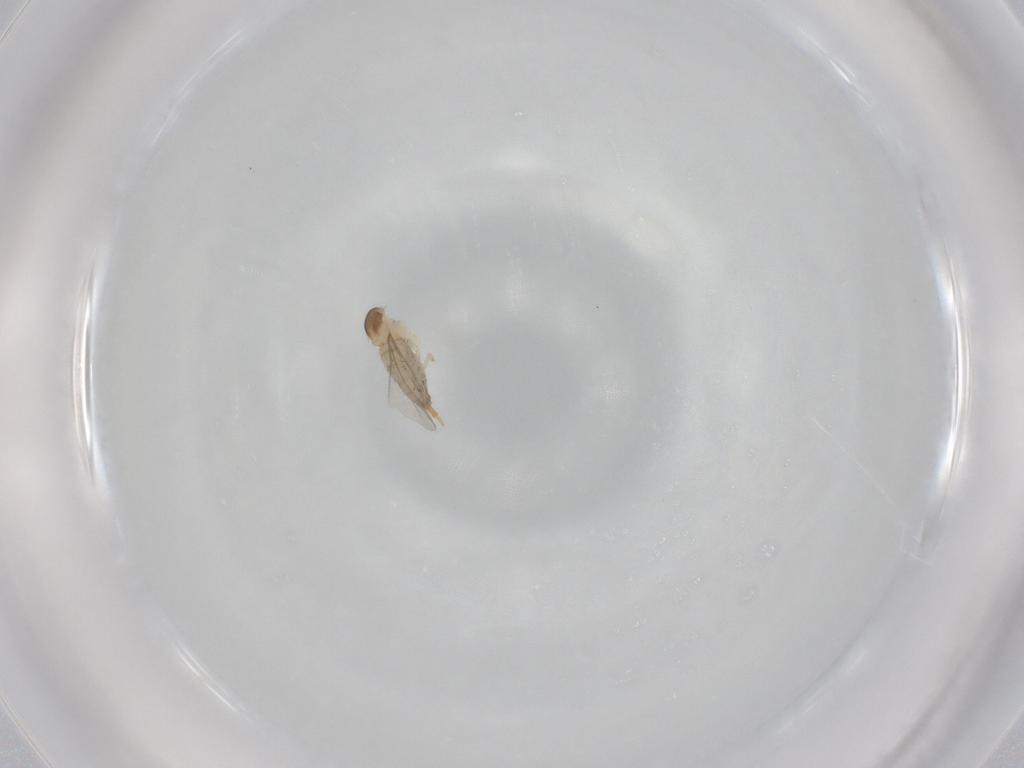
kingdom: Animalia
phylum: Arthropoda
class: Insecta
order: Diptera
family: Cecidomyiidae
